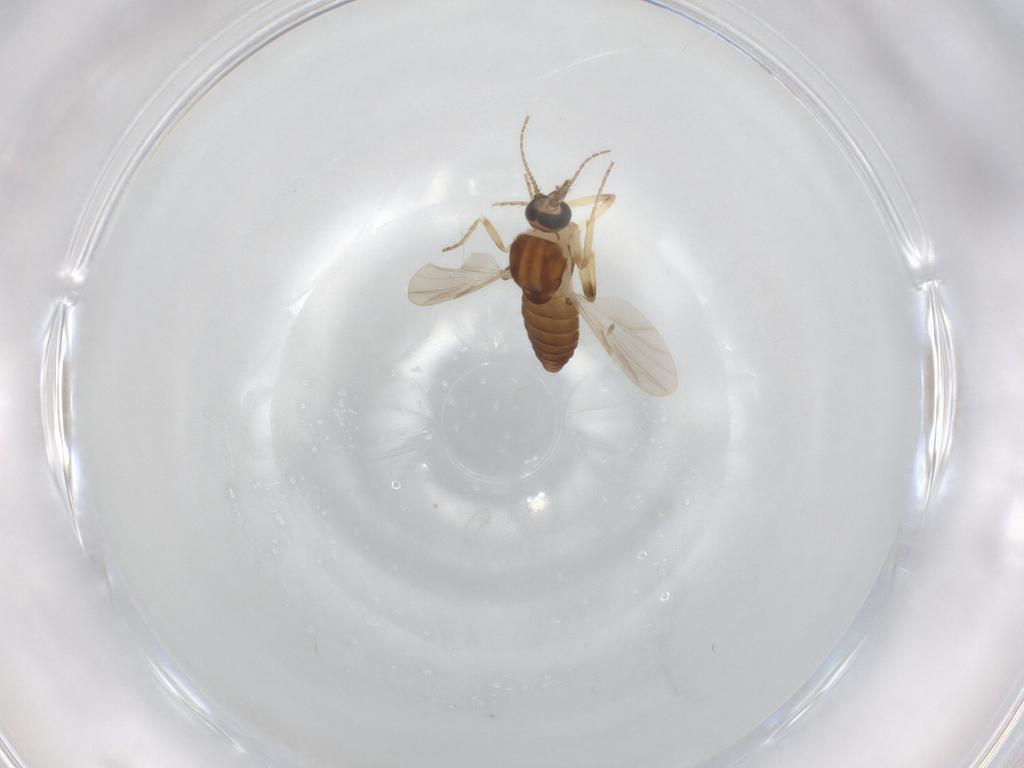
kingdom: Animalia
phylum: Arthropoda
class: Insecta
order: Diptera
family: Ceratopogonidae
